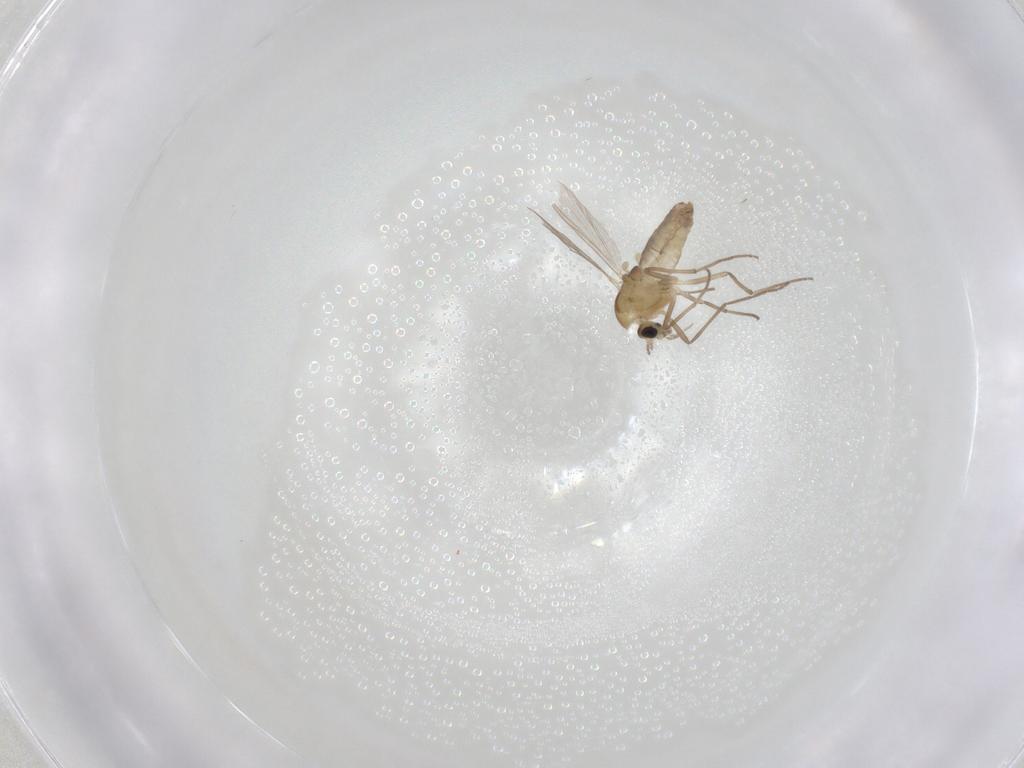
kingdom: Animalia
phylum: Arthropoda
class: Insecta
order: Diptera
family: Chironomidae
